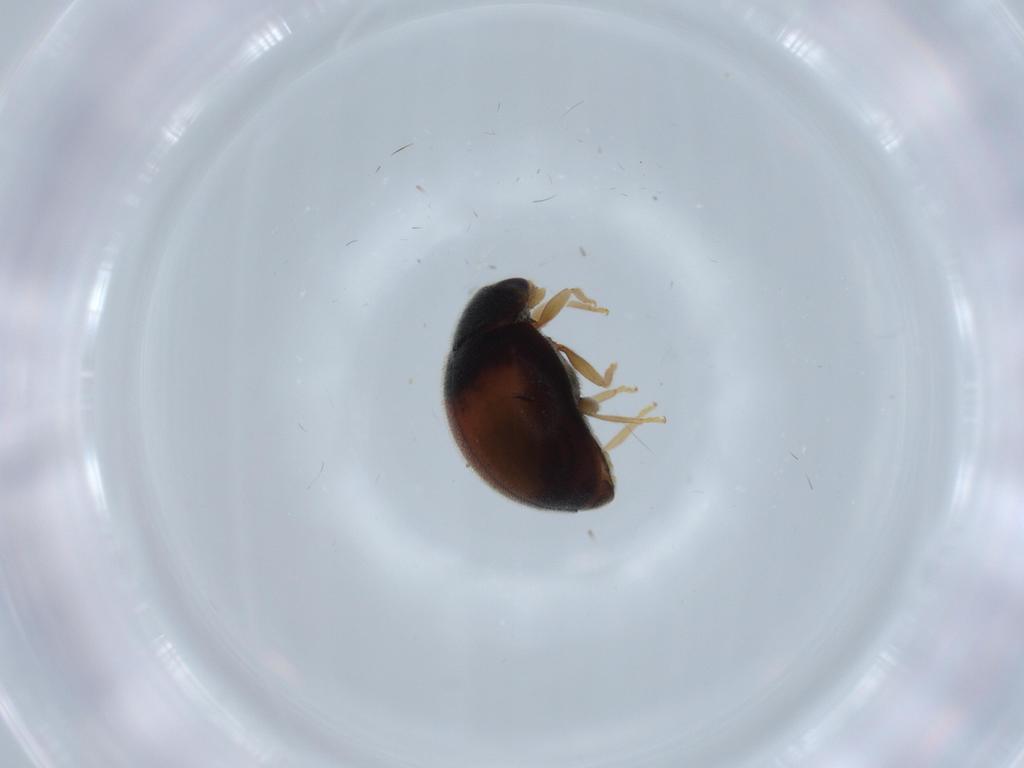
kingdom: Animalia
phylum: Arthropoda
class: Insecta
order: Coleoptera
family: Coccinellidae
